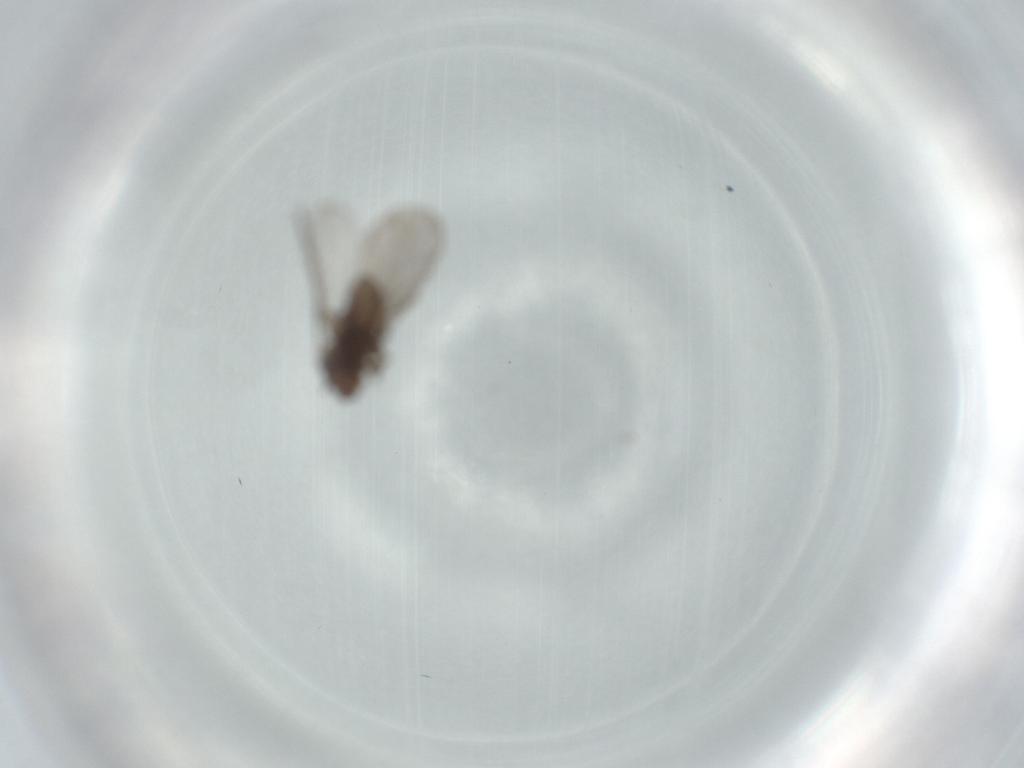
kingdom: Animalia
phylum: Arthropoda
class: Insecta
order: Psocodea
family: Lepidopsocidae
